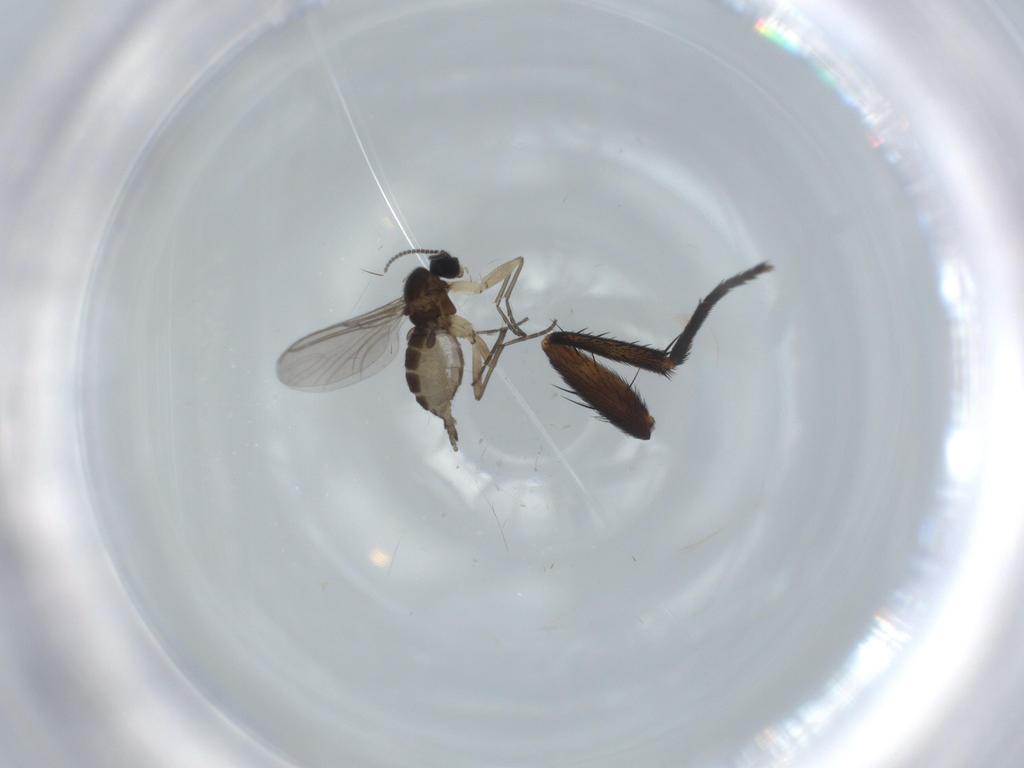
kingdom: Animalia
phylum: Arthropoda
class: Insecta
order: Diptera
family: Sciaridae
